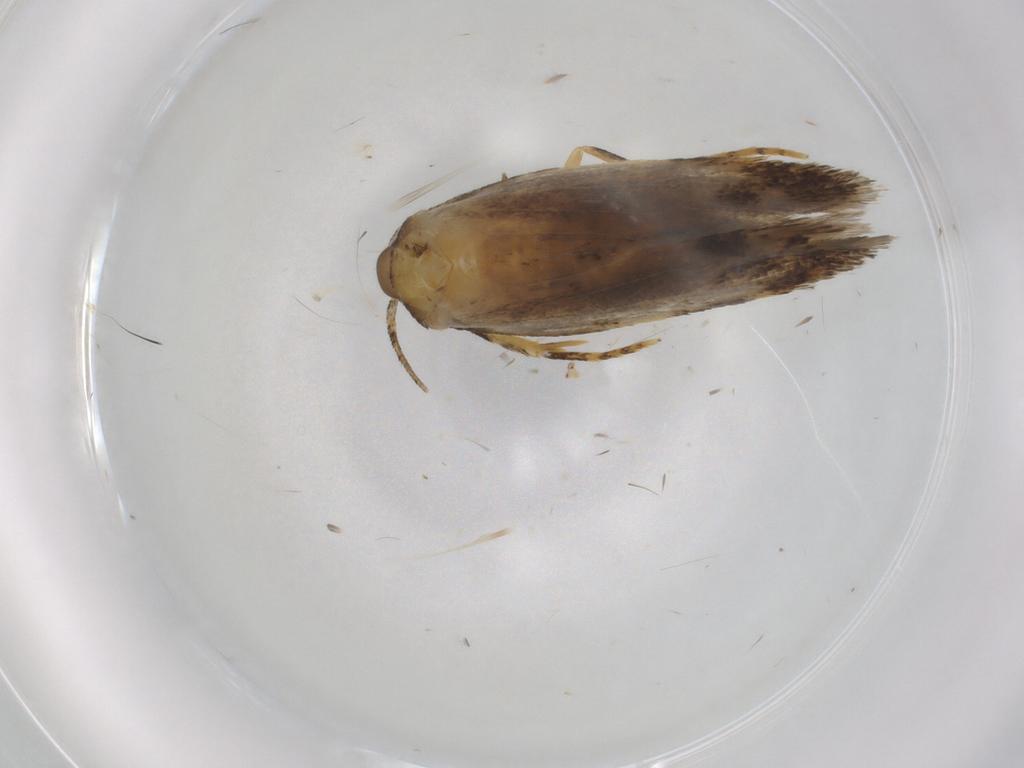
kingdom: Animalia
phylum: Arthropoda
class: Insecta
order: Lepidoptera
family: Autostichidae
